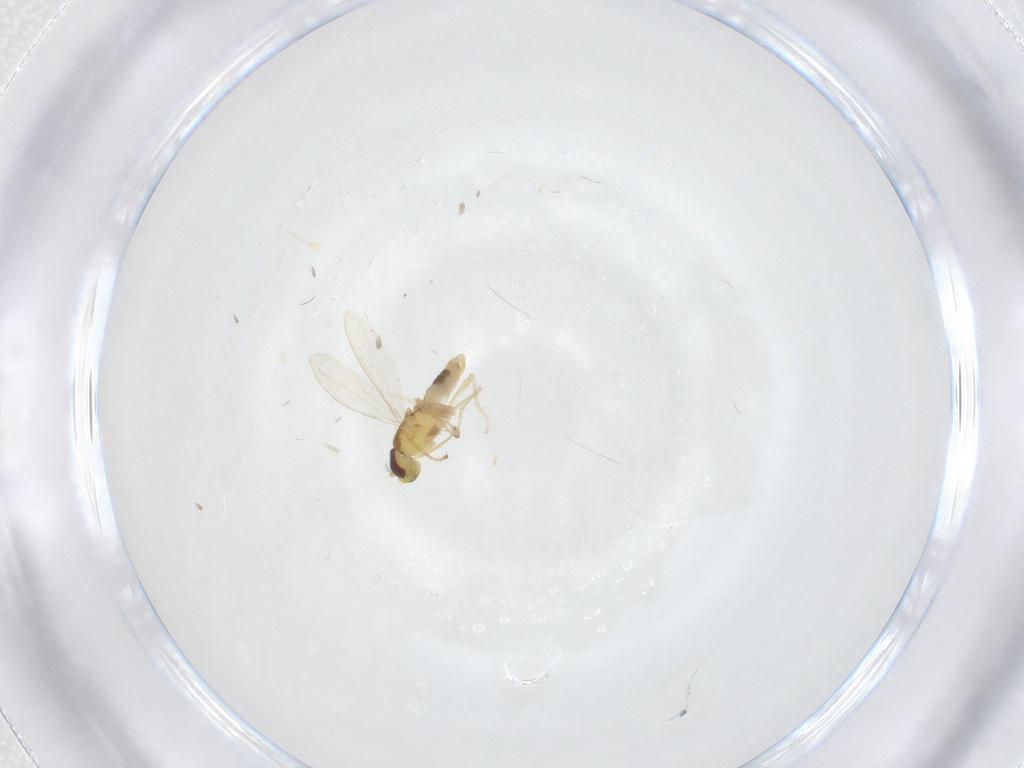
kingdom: Animalia
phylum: Arthropoda
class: Insecta
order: Diptera
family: Periscelididae
